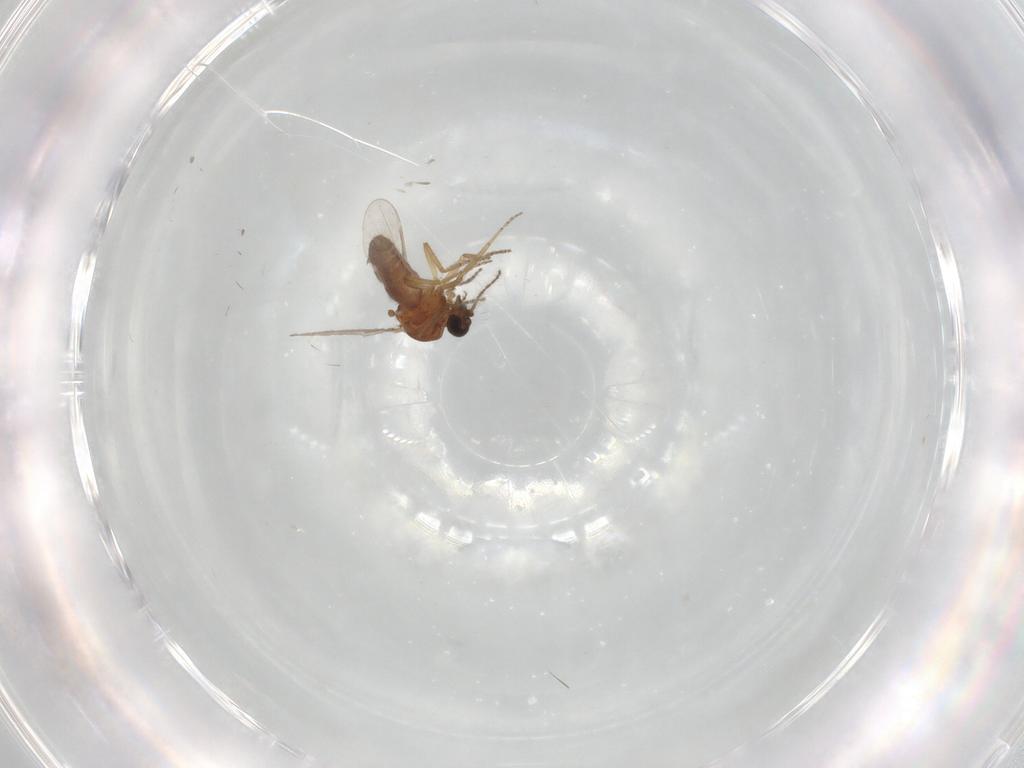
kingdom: Animalia
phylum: Arthropoda
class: Insecta
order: Diptera
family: Ceratopogonidae
